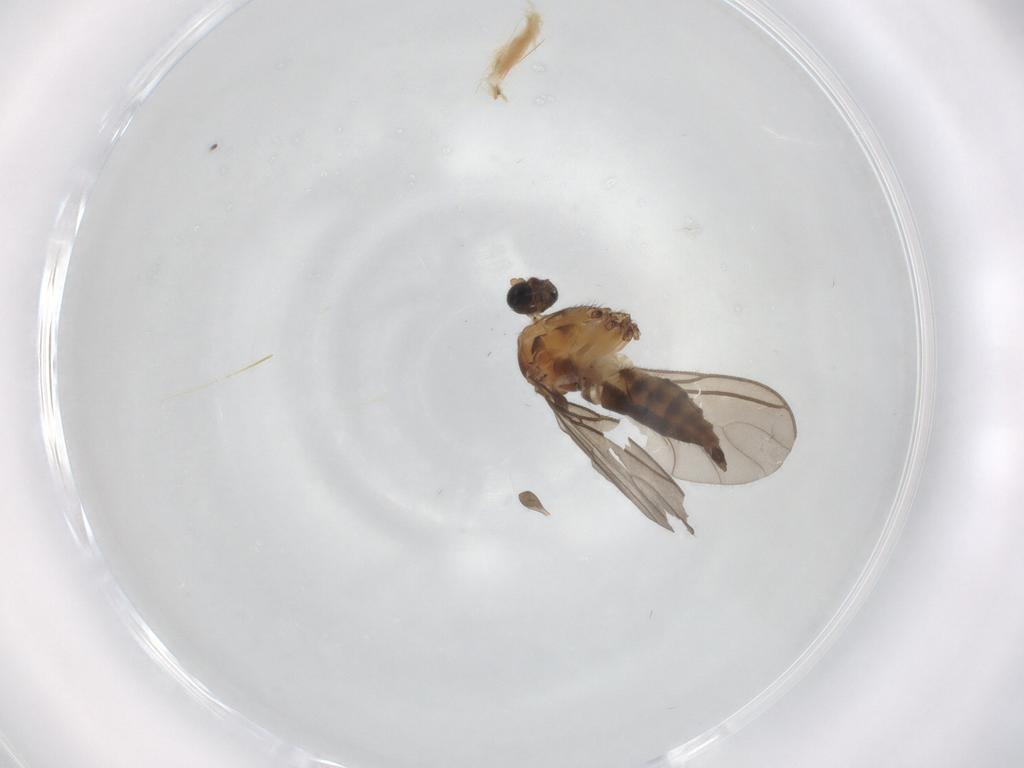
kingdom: Animalia
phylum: Arthropoda
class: Insecta
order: Diptera
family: Sciaridae
